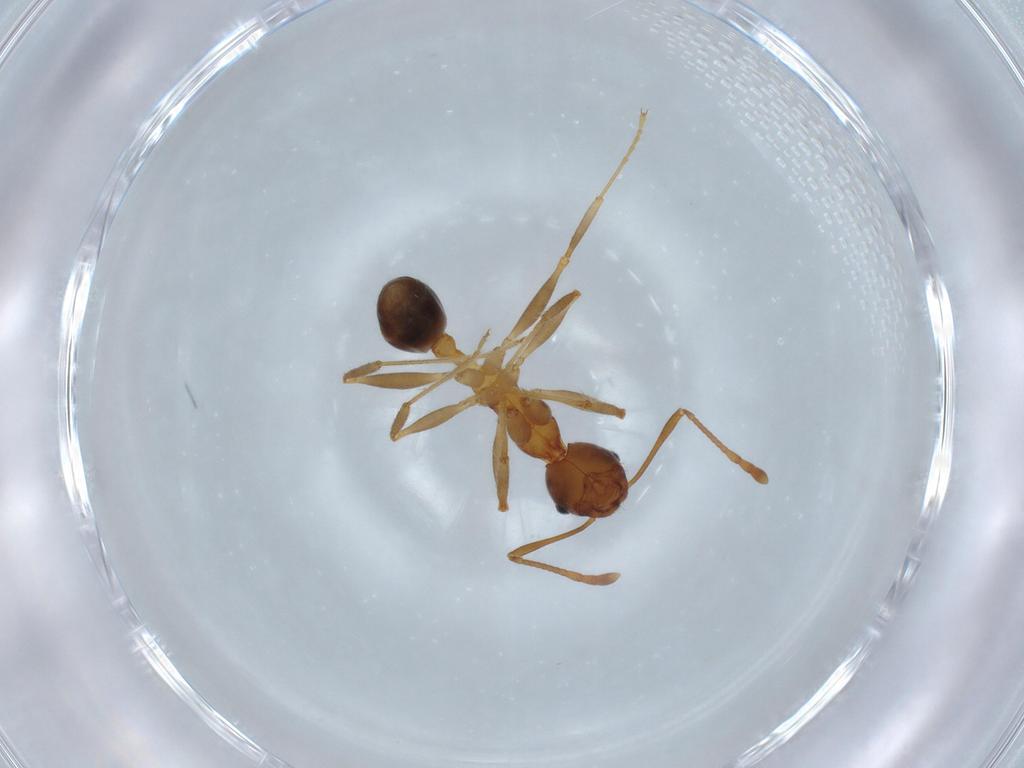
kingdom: Animalia
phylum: Arthropoda
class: Insecta
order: Hymenoptera
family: Formicidae
